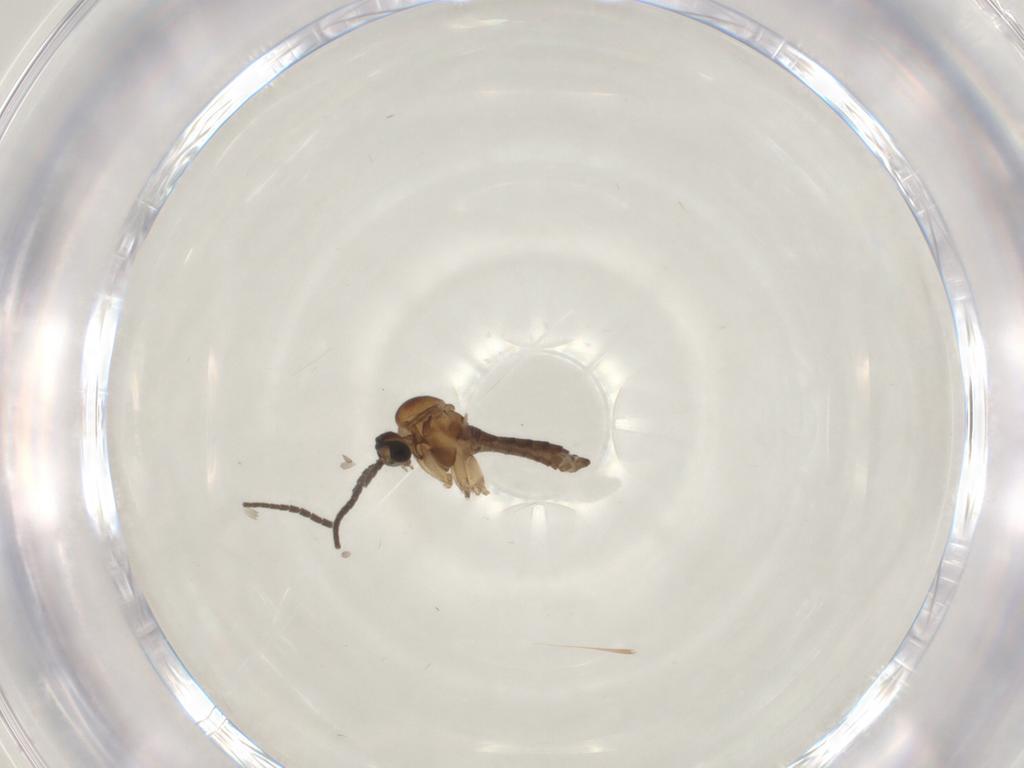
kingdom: Animalia
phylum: Arthropoda
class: Insecta
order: Diptera
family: Sciaridae
